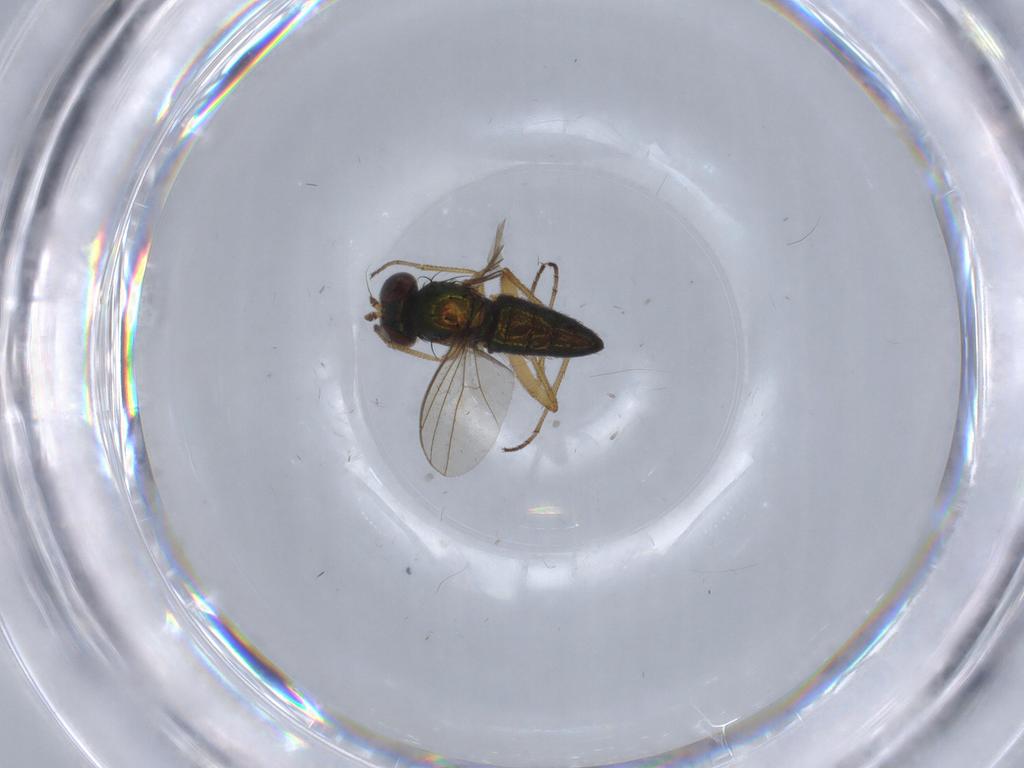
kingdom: Animalia
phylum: Arthropoda
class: Insecta
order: Diptera
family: Dolichopodidae
